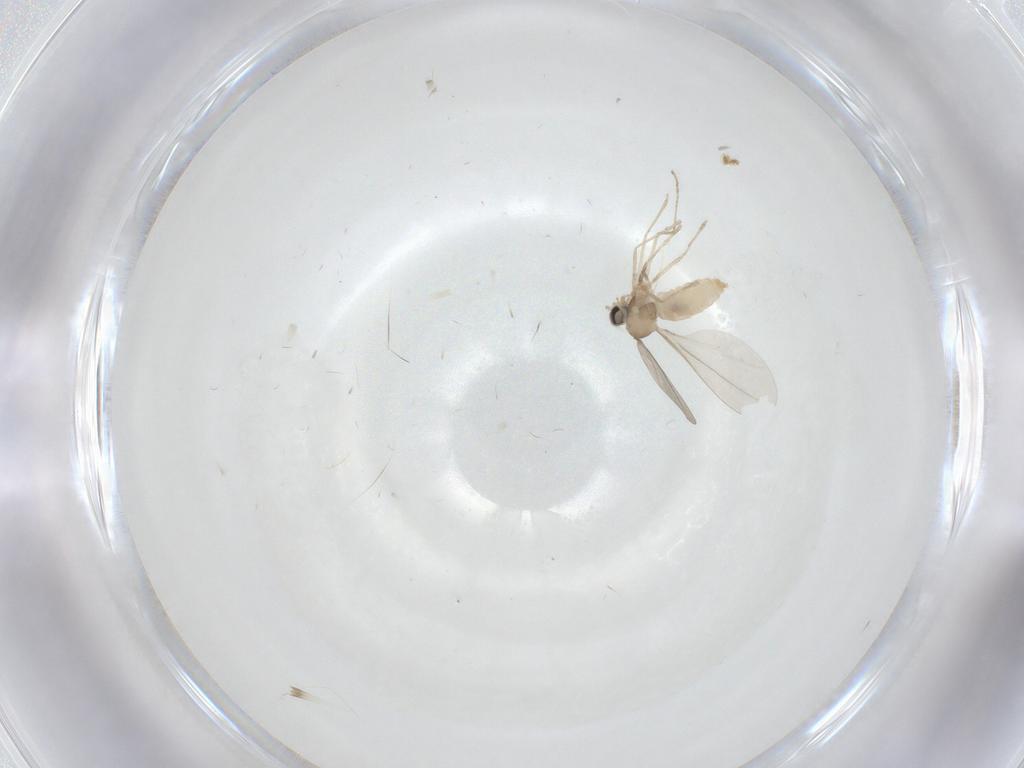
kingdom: Animalia
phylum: Arthropoda
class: Insecta
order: Diptera
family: Cecidomyiidae
